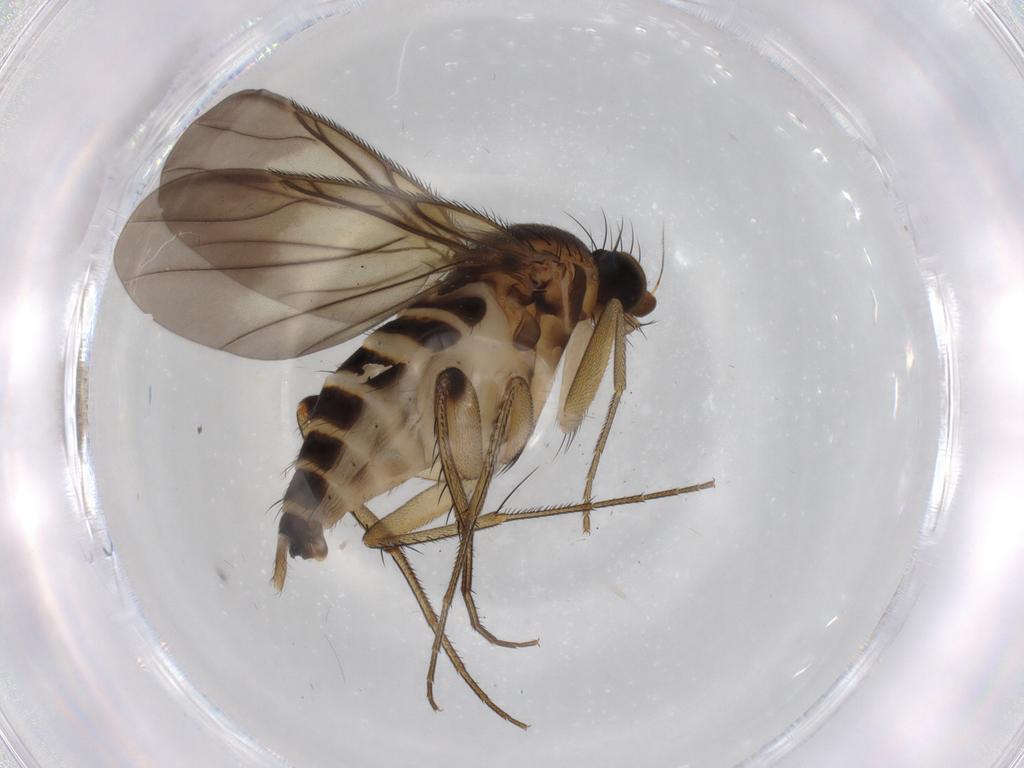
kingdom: Animalia
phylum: Arthropoda
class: Insecta
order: Diptera
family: Phoridae
